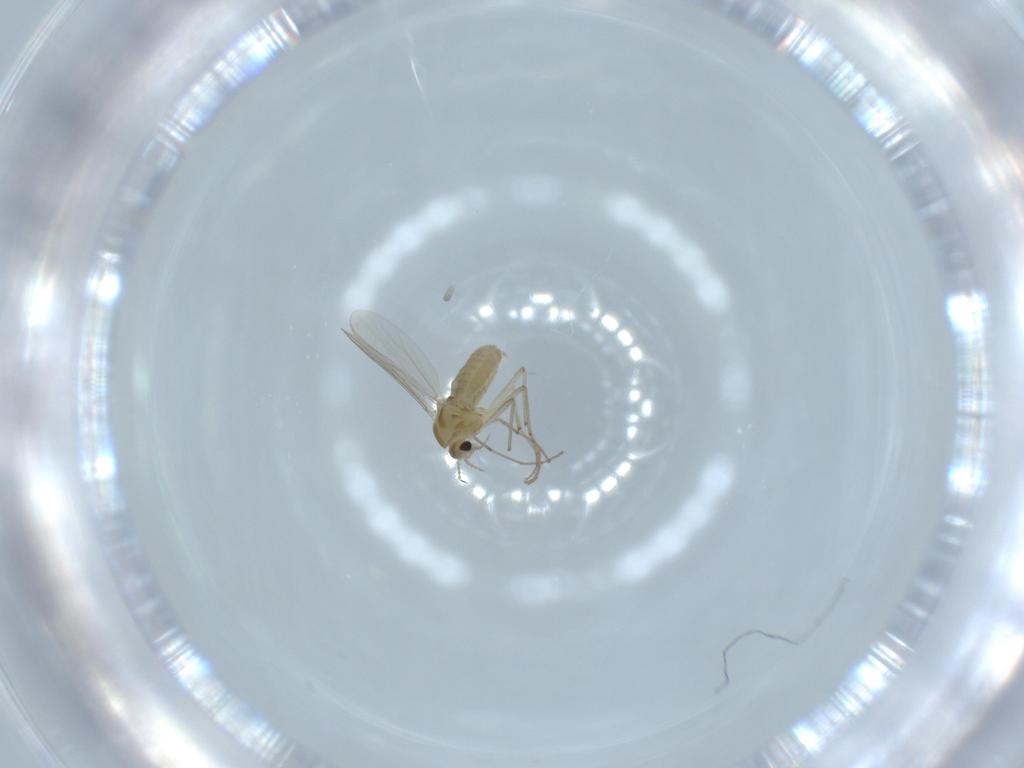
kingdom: Animalia
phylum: Arthropoda
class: Insecta
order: Diptera
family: Chironomidae
